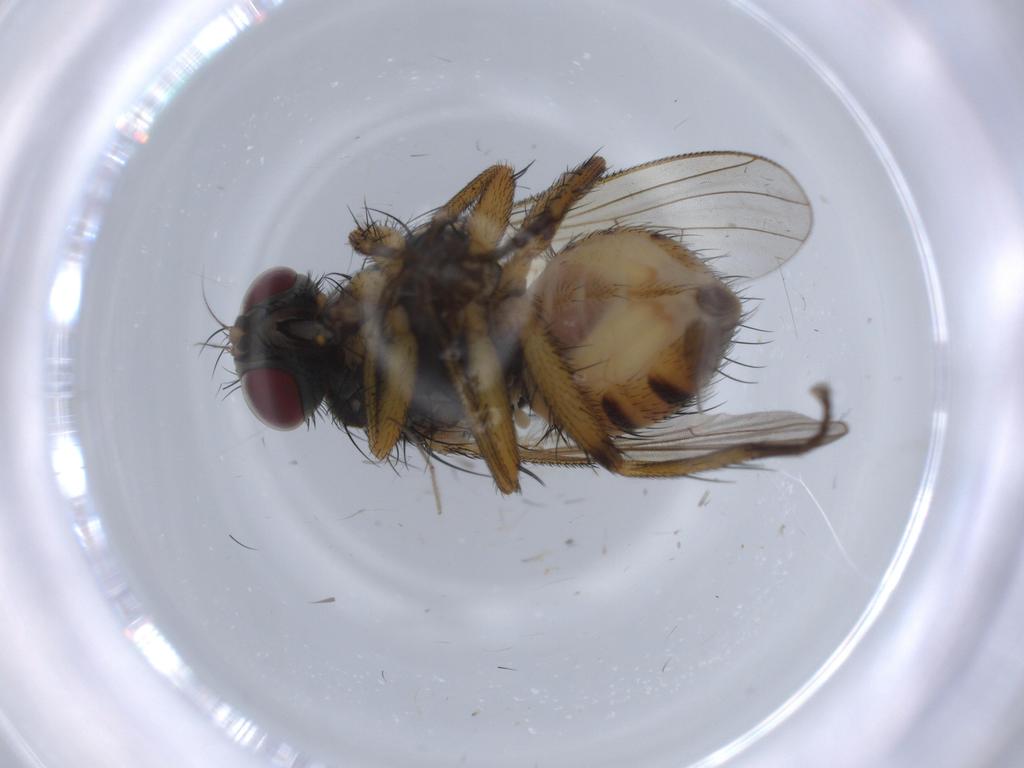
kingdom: Animalia
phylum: Arthropoda
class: Insecta
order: Diptera
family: Muscidae
